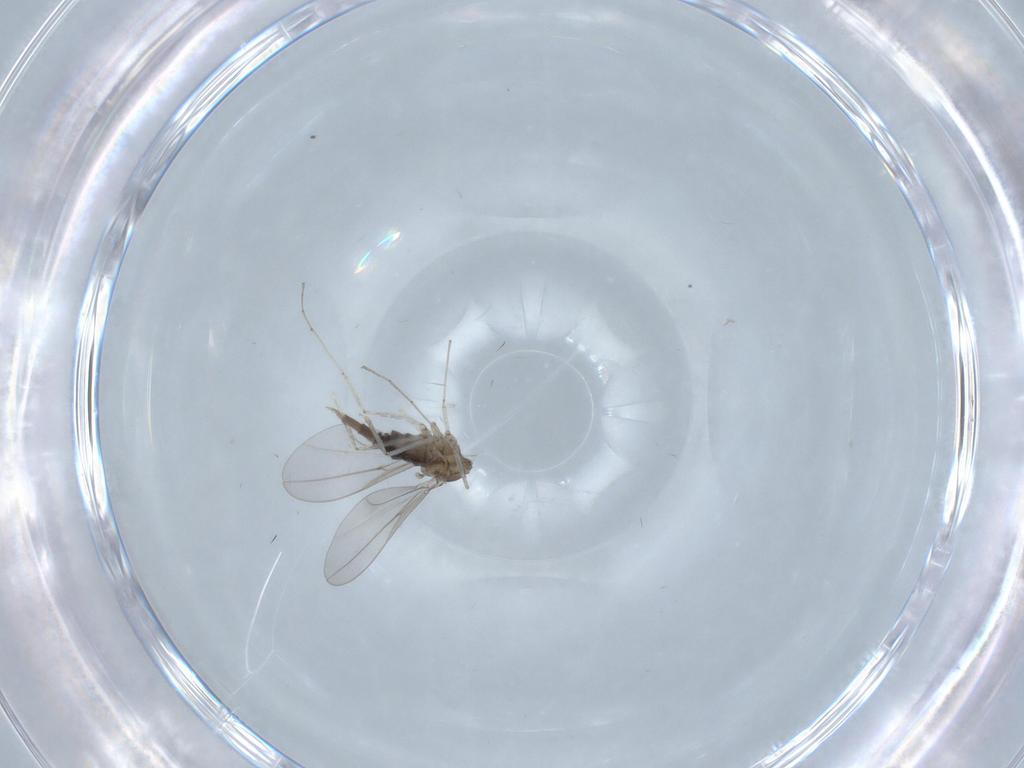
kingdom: Animalia
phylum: Arthropoda
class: Insecta
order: Diptera
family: Cecidomyiidae
